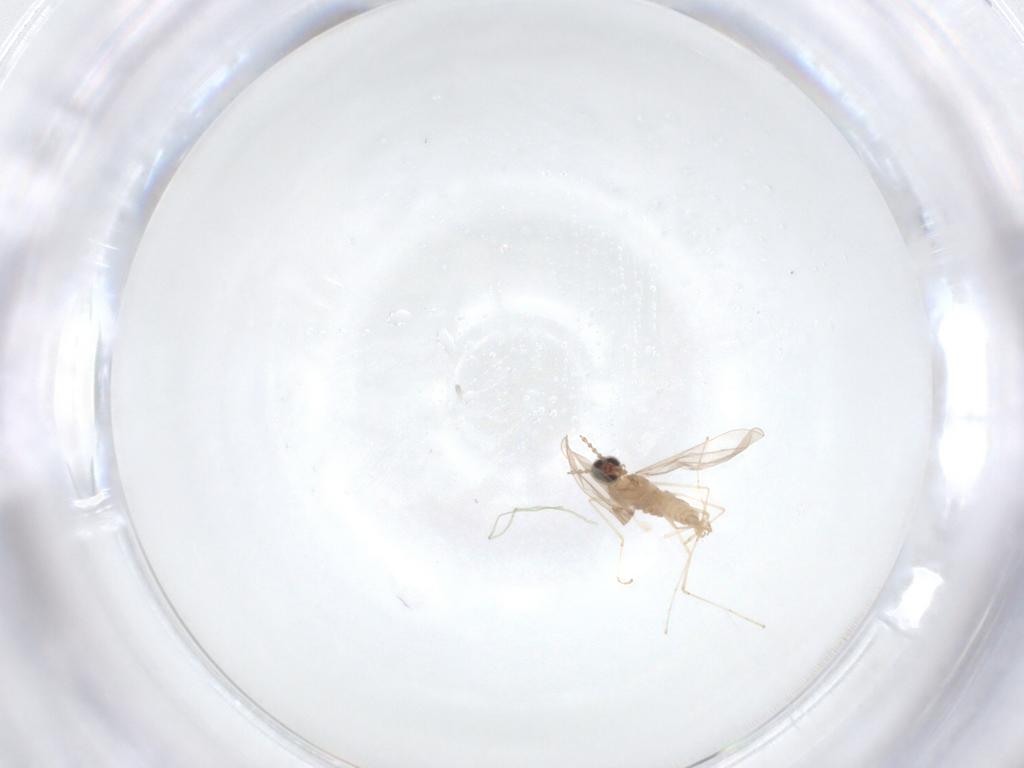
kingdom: Animalia
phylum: Arthropoda
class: Insecta
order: Diptera
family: Cecidomyiidae
